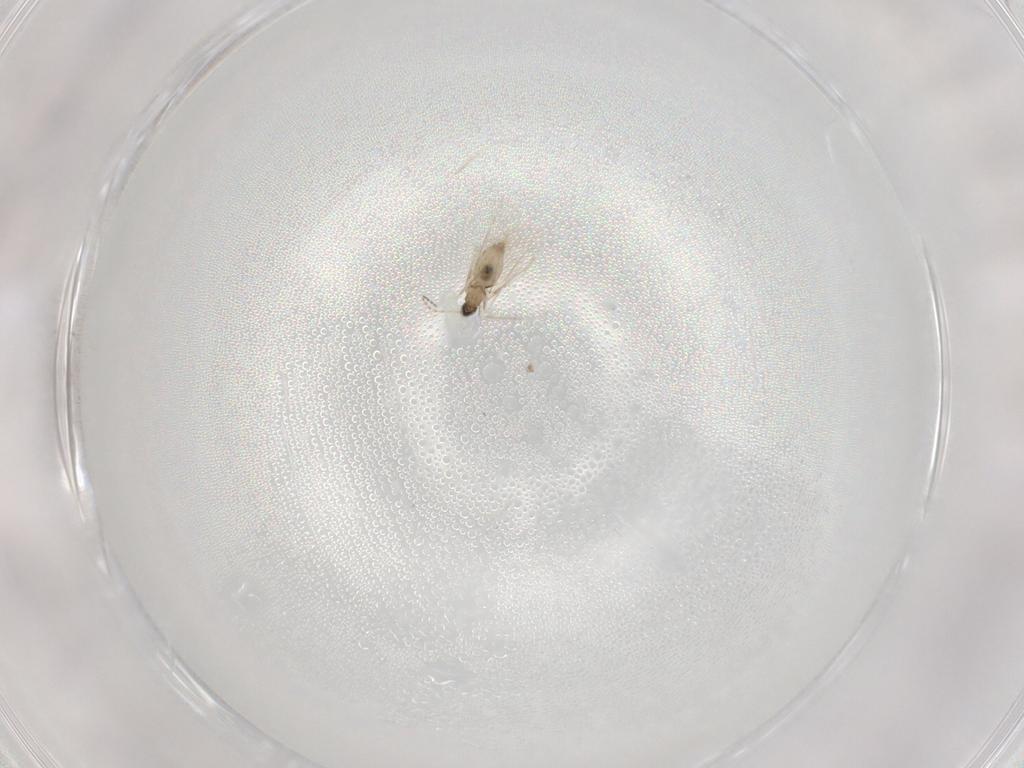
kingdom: Animalia
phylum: Arthropoda
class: Insecta
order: Diptera
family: Cecidomyiidae
